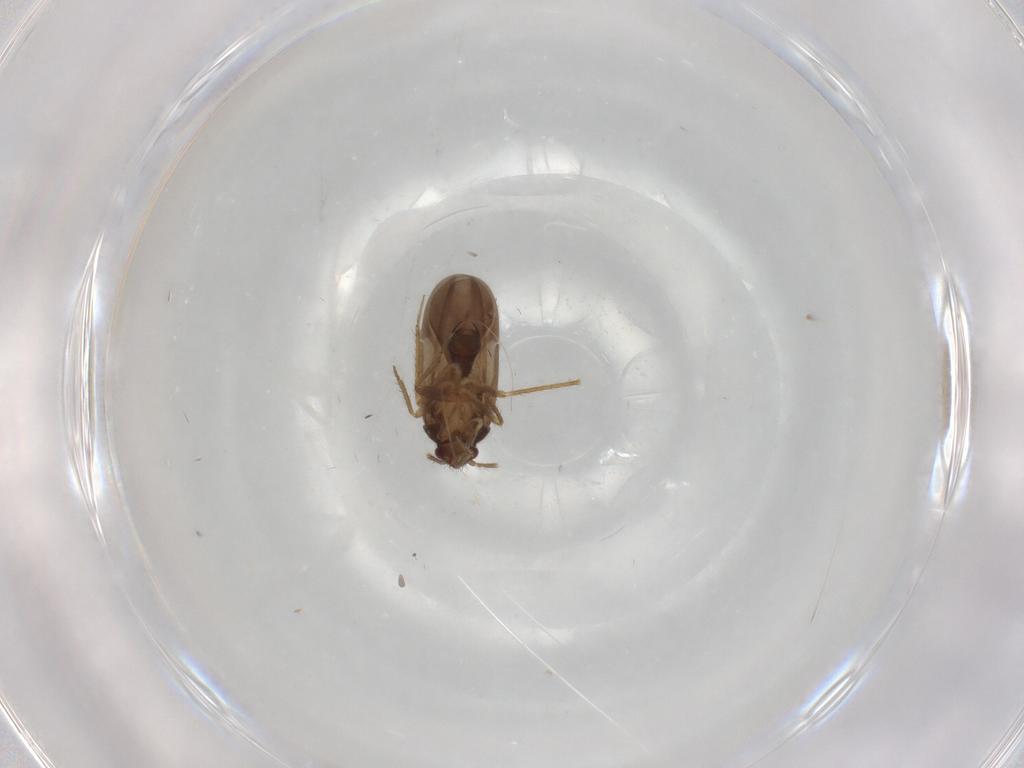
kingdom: Animalia
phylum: Arthropoda
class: Insecta
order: Hemiptera
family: Ceratocombidae
